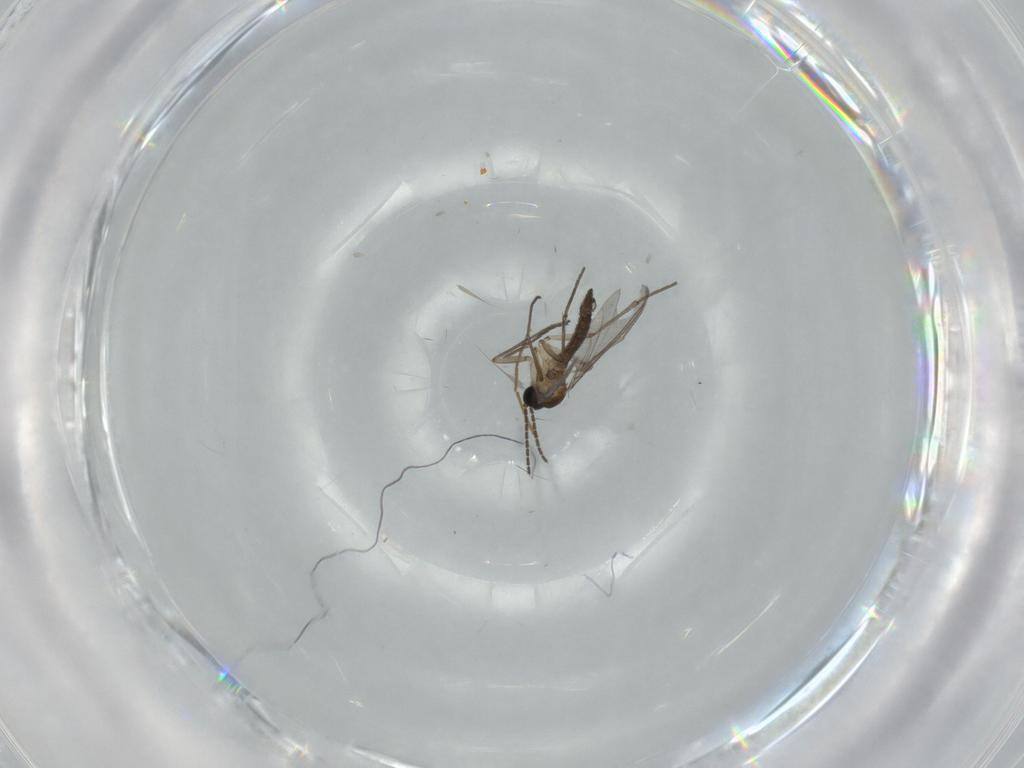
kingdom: Animalia
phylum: Arthropoda
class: Insecta
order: Diptera
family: Sciaridae
